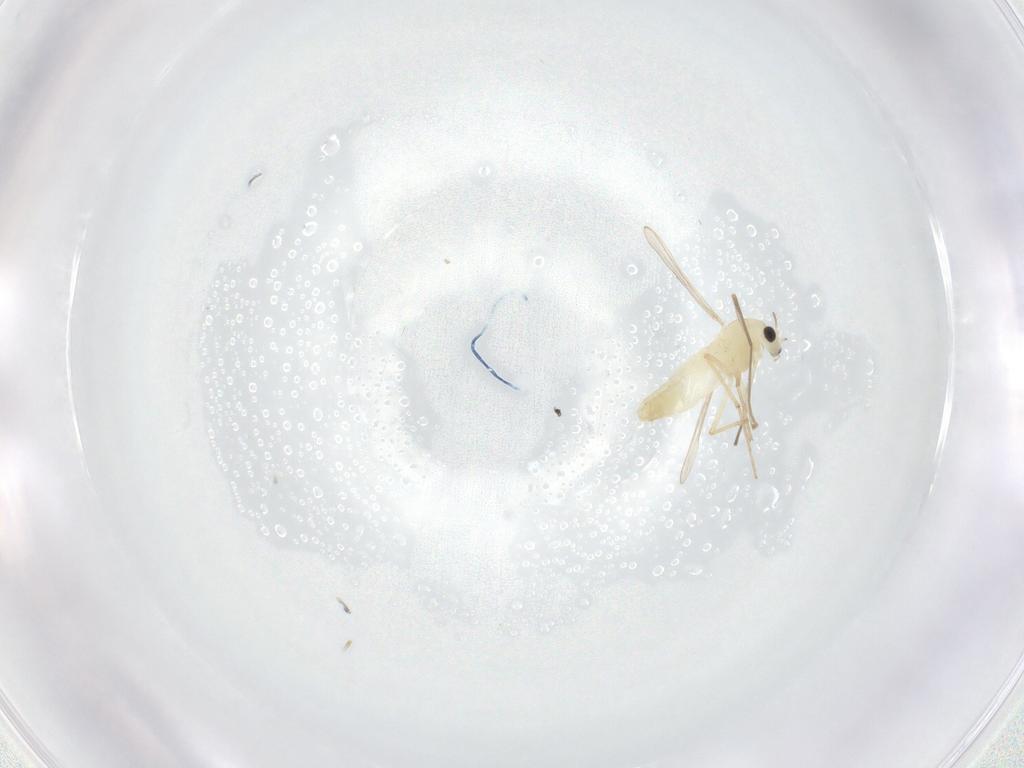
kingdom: Animalia
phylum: Arthropoda
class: Insecta
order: Diptera
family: Chironomidae
